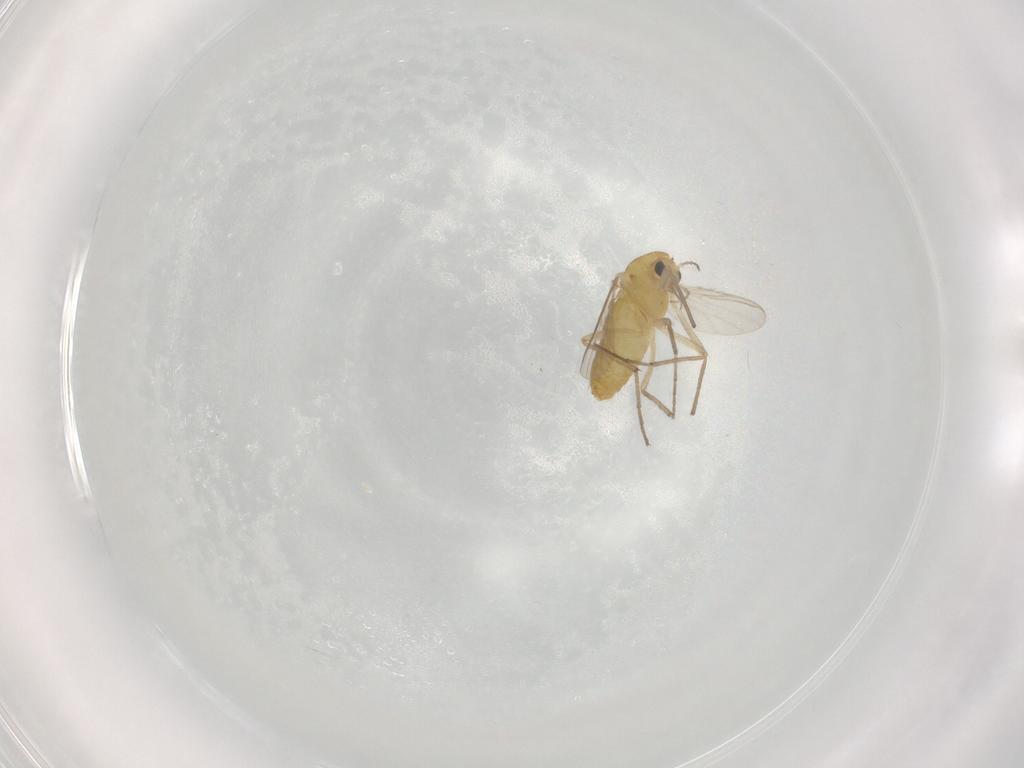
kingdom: Animalia
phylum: Arthropoda
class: Insecta
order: Diptera
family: Chironomidae
